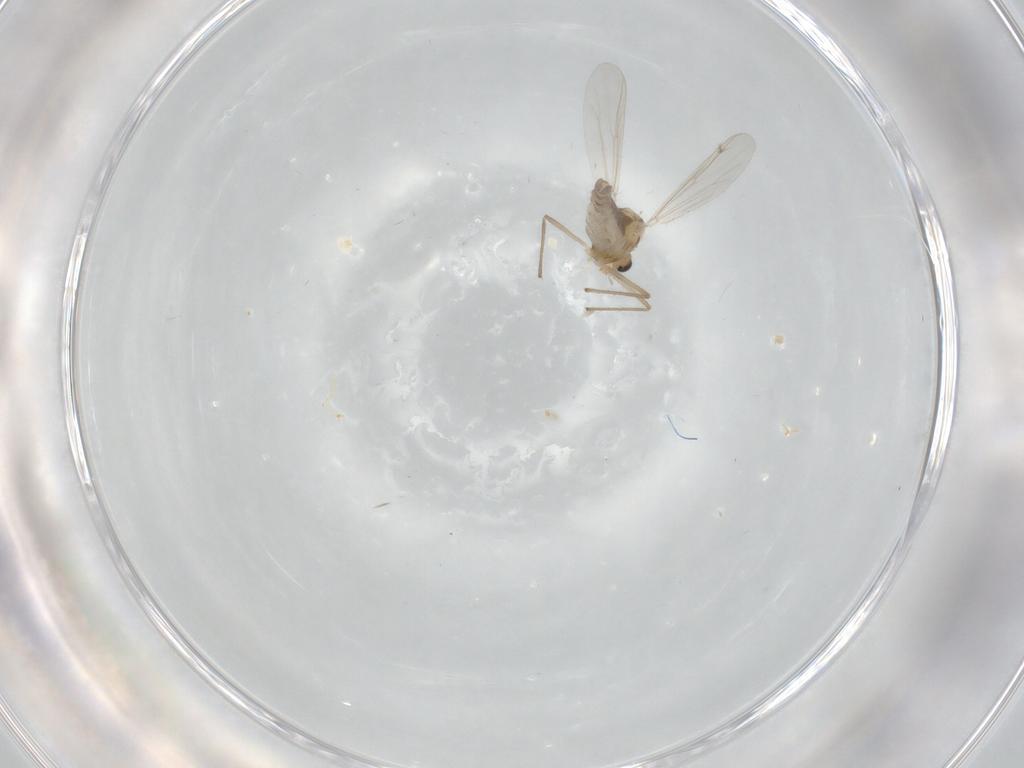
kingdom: Animalia
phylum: Arthropoda
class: Insecta
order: Diptera
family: Chironomidae
